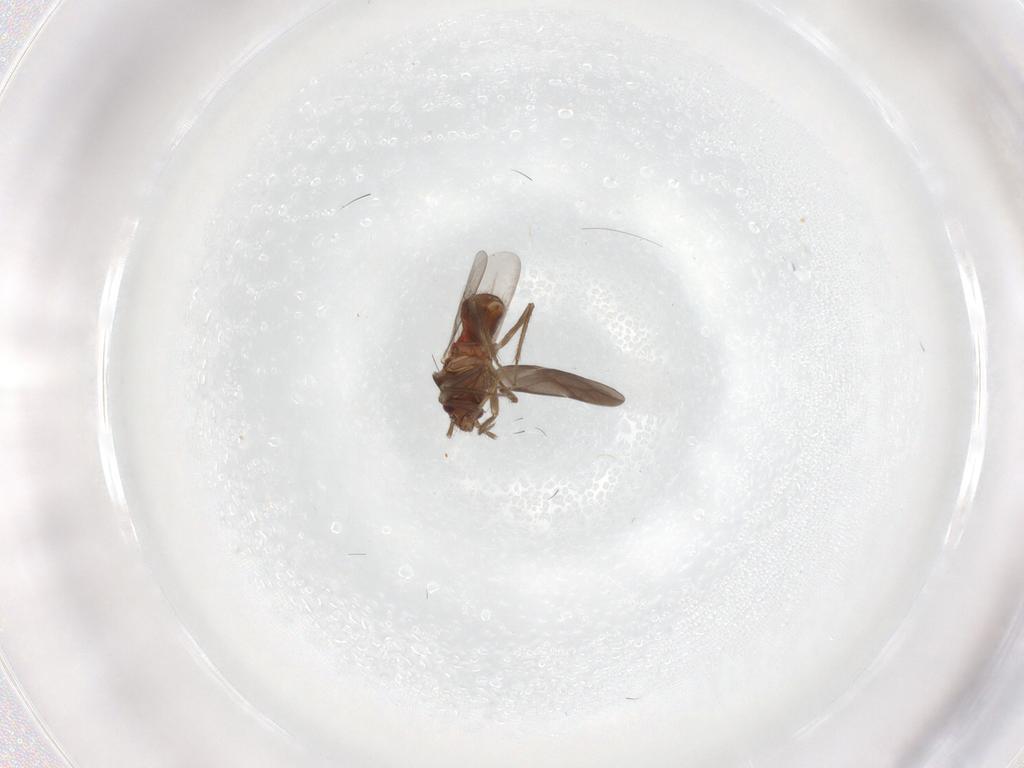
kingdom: Animalia
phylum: Arthropoda
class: Insecta
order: Hemiptera
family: Ceratocombidae
